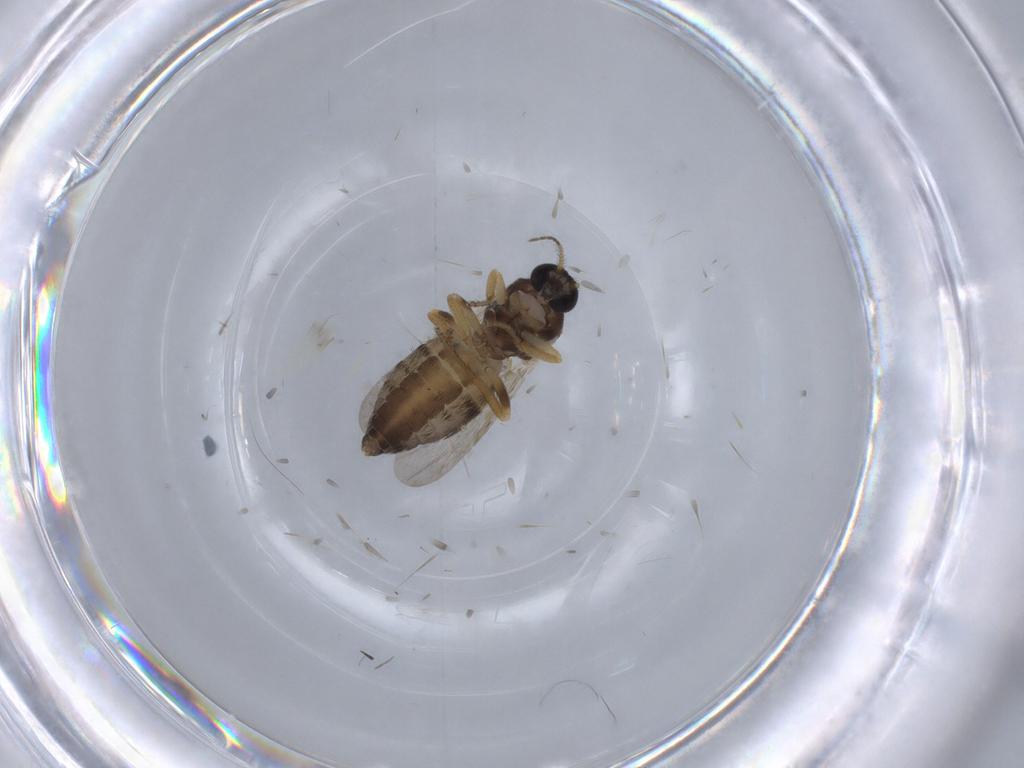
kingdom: Animalia
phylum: Arthropoda
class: Insecta
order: Diptera
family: Ceratopogonidae
